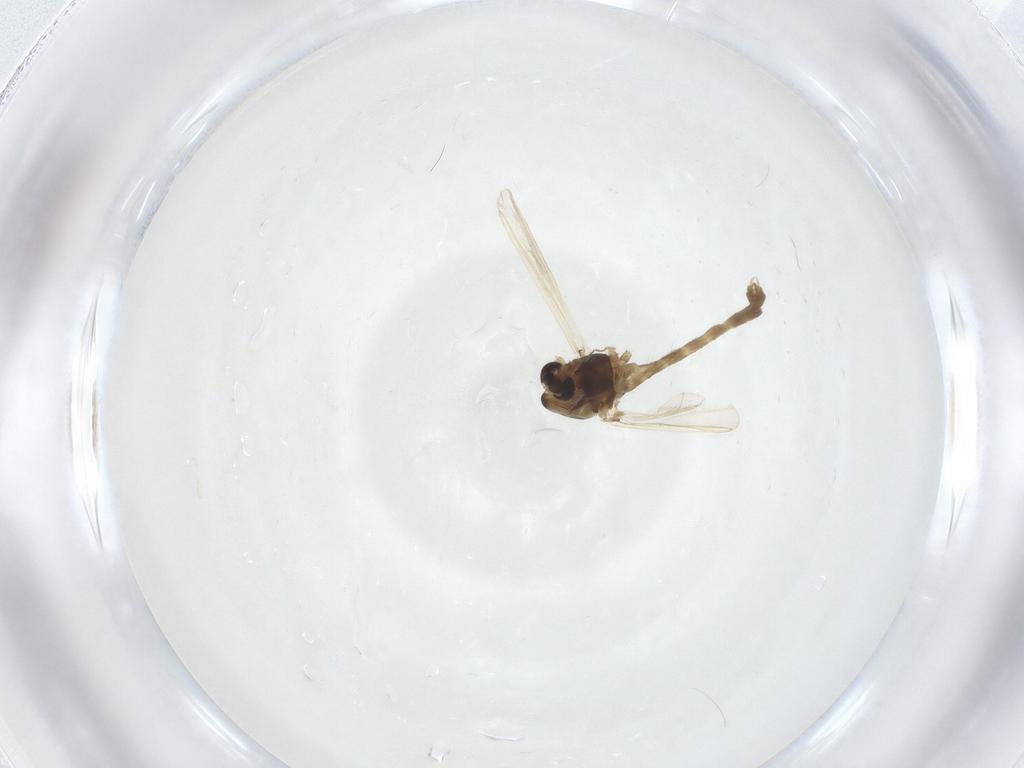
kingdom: Animalia
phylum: Arthropoda
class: Insecta
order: Diptera
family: Chironomidae
